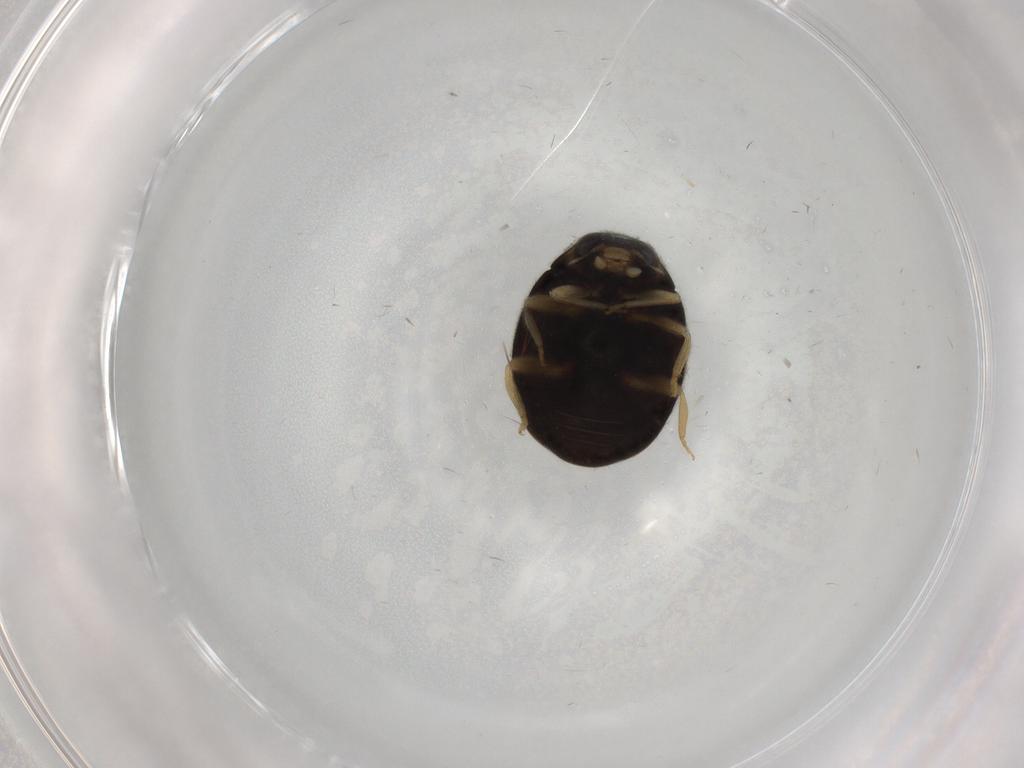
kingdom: Animalia
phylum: Arthropoda
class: Insecta
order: Coleoptera
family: Coccinellidae
